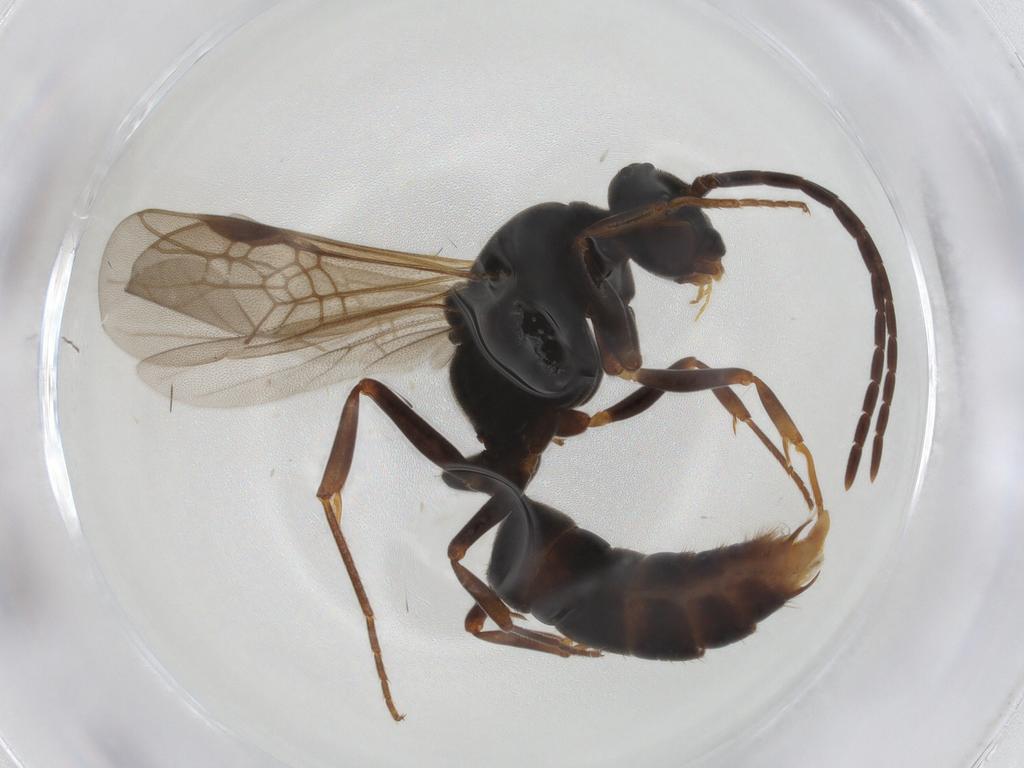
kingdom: Animalia
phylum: Arthropoda
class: Insecta
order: Hymenoptera
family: Formicidae
